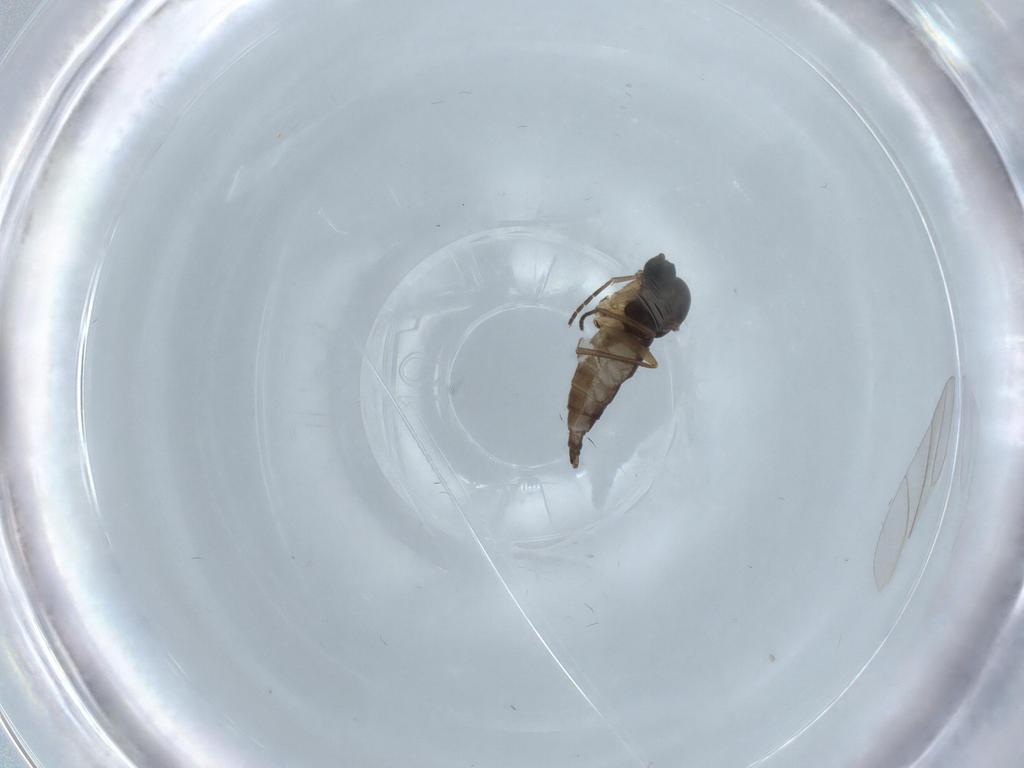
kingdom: Animalia
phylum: Arthropoda
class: Insecta
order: Diptera
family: Sciaridae
